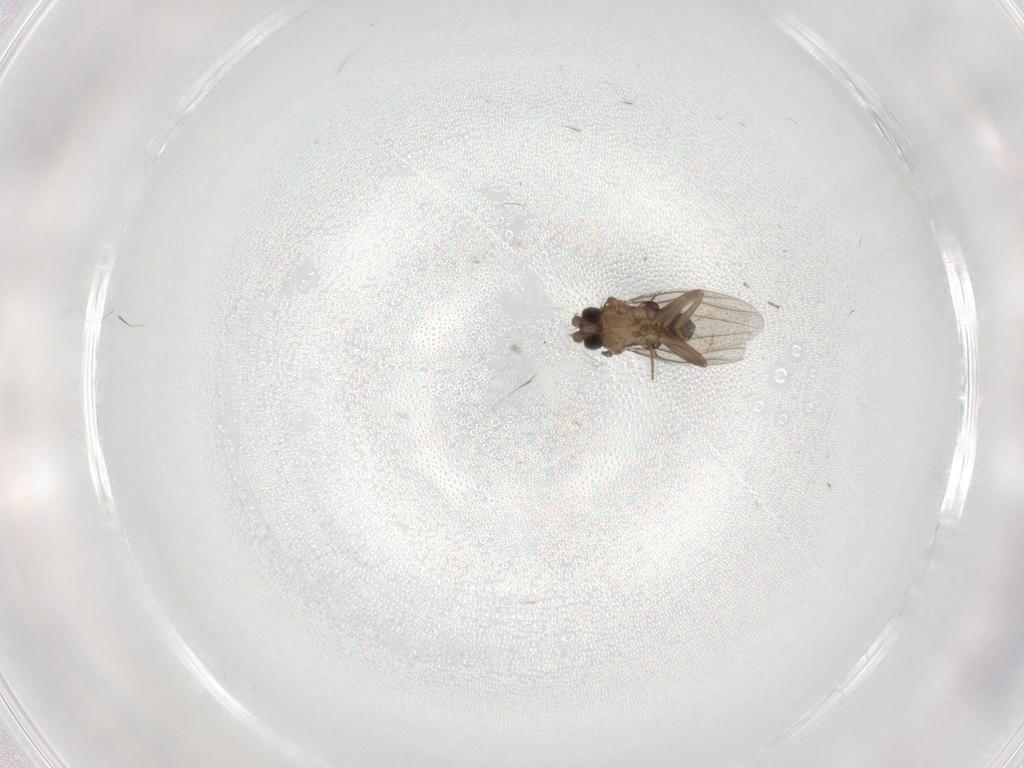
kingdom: Animalia
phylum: Arthropoda
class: Insecta
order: Diptera
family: Phoridae
